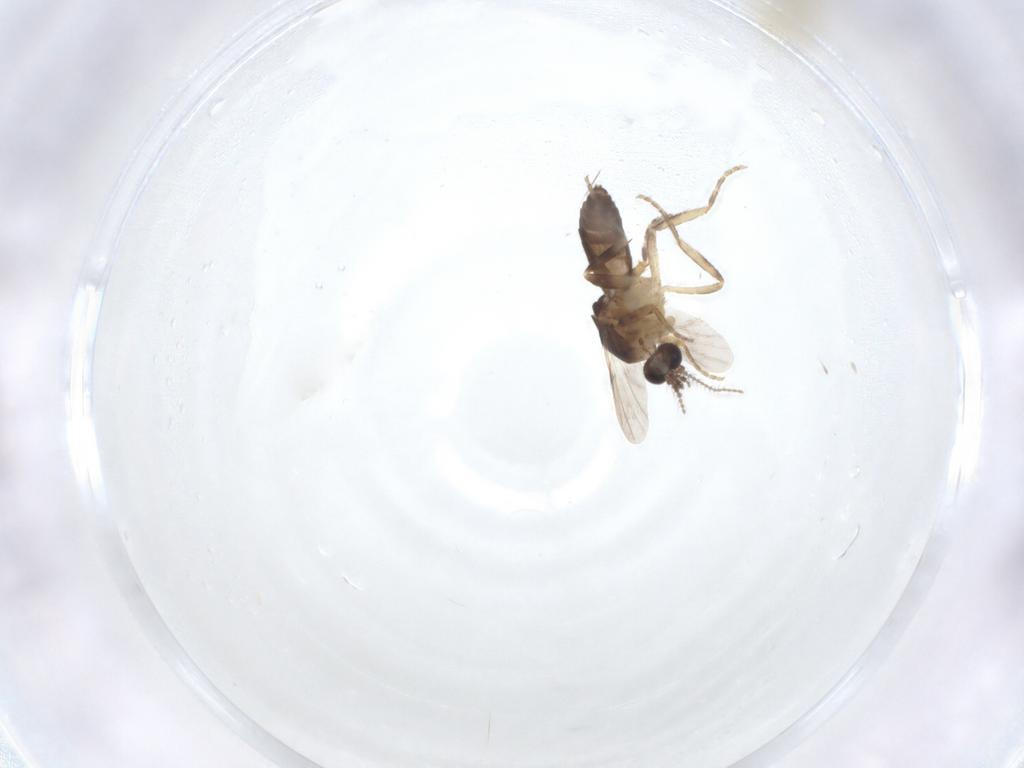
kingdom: Animalia
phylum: Arthropoda
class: Insecta
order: Diptera
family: Ceratopogonidae
